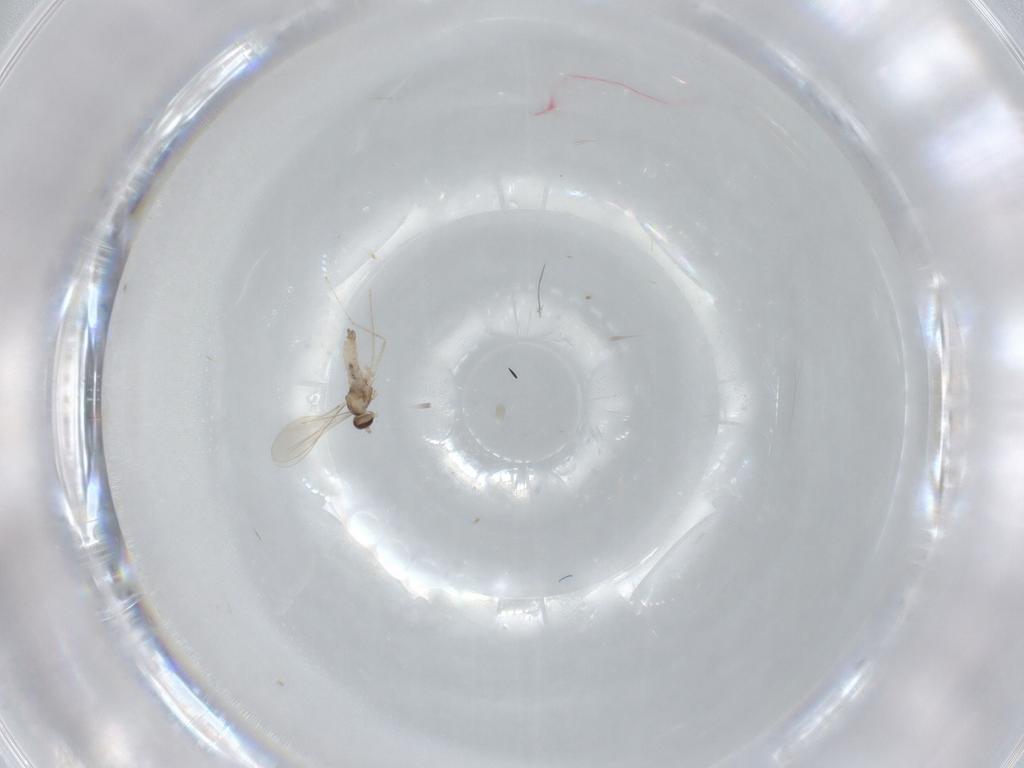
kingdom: Animalia
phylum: Arthropoda
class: Insecta
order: Diptera
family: Cecidomyiidae
